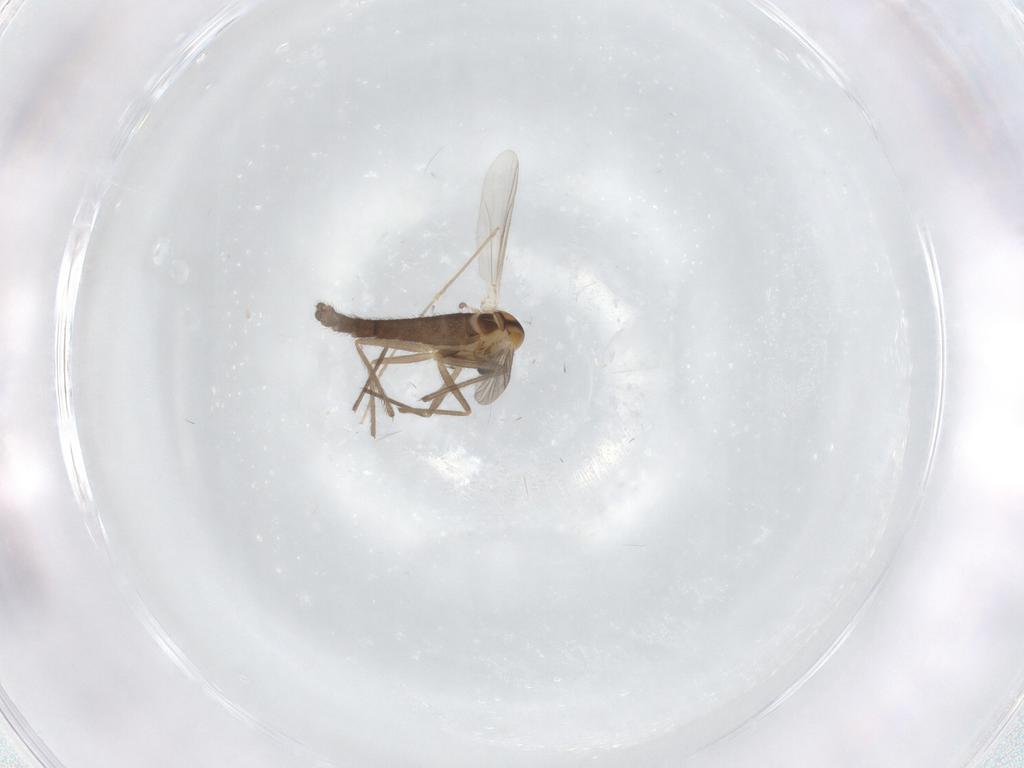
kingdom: Animalia
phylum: Arthropoda
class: Insecta
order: Diptera
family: Chironomidae
